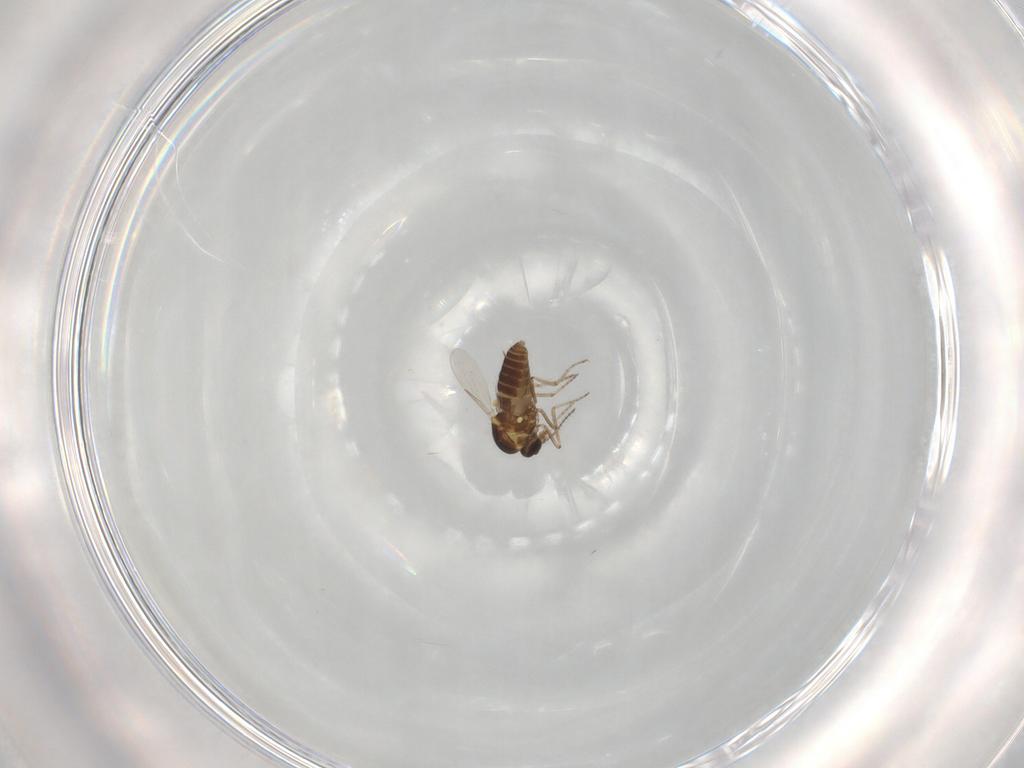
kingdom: Animalia
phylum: Arthropoda
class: Insecta
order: Diptera
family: Ceratopogonidae
